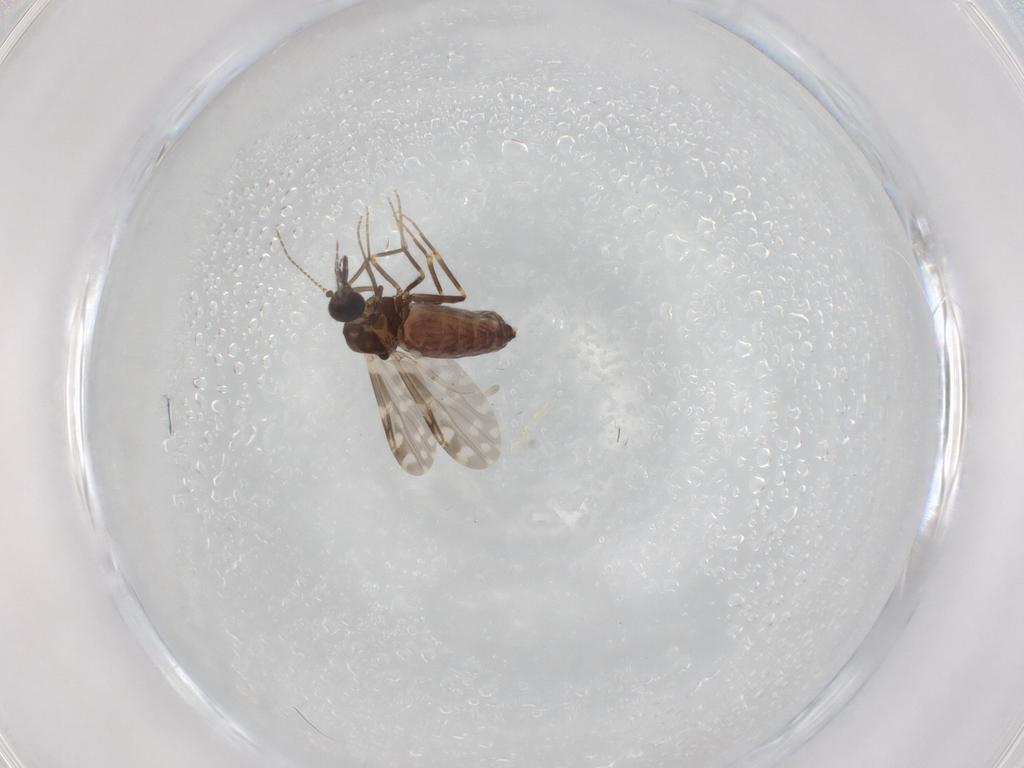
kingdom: Animalia
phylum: Arthropoda
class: Insecta
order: Diptera
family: Ceratopogonidae
